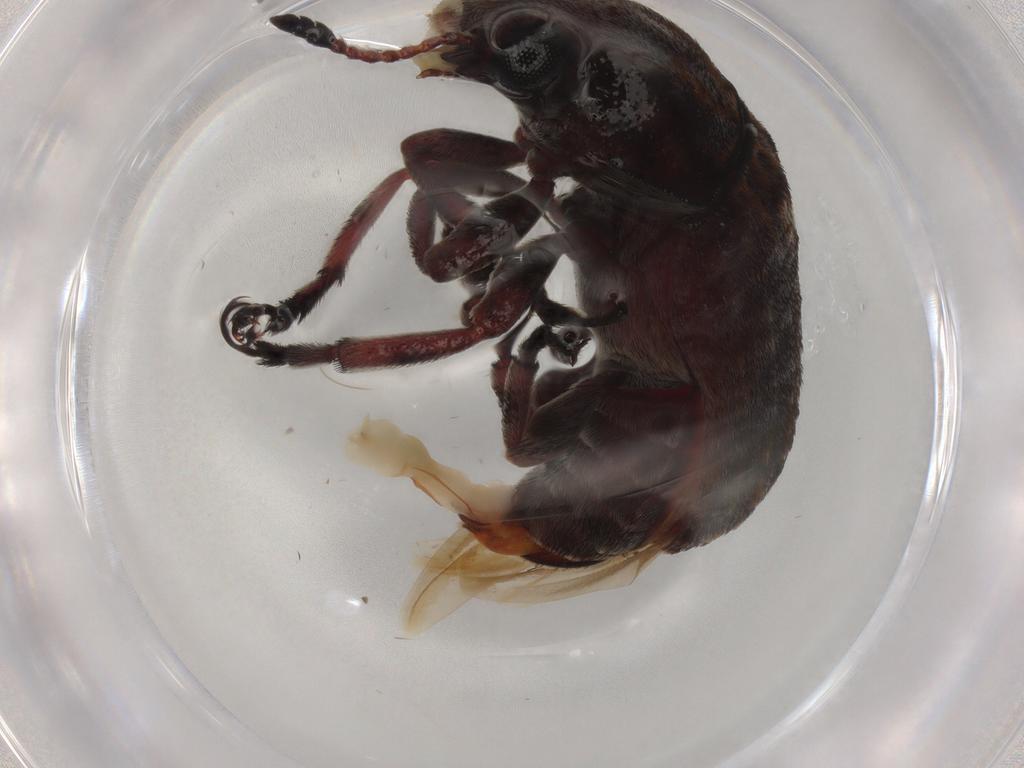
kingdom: Animalia
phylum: Arthropoda
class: Insecta
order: Coleoptera
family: Anthribidae
